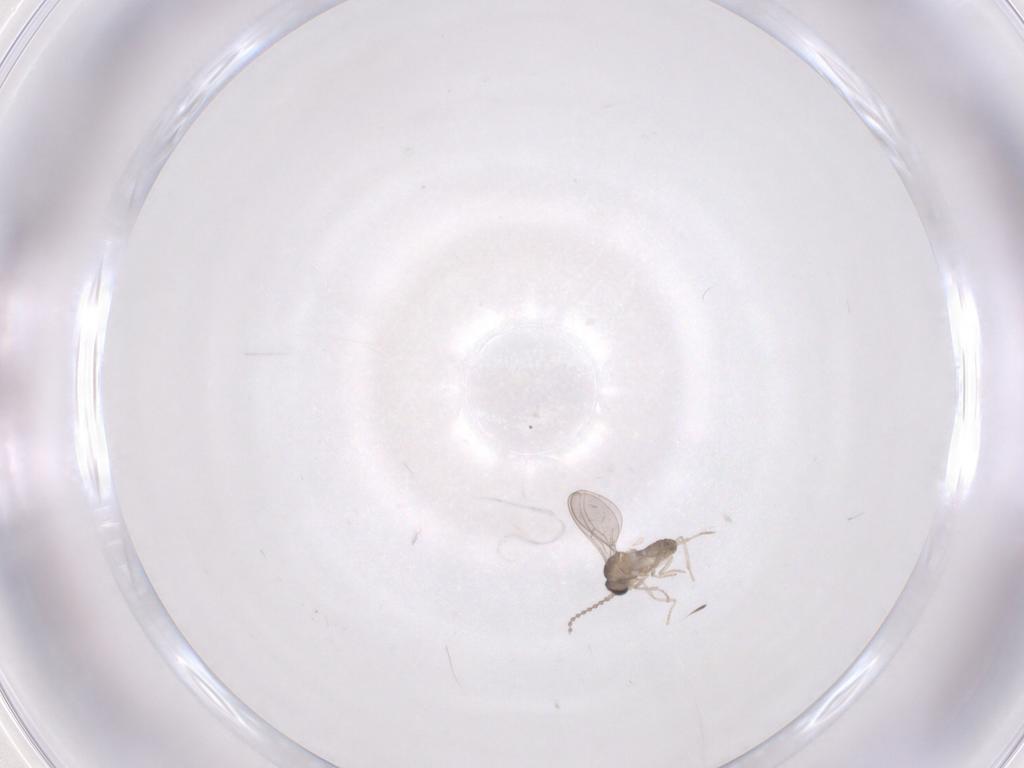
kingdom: Animalia
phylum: Arthropoda
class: Insecta
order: Diptera
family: Cecidomyiidae
